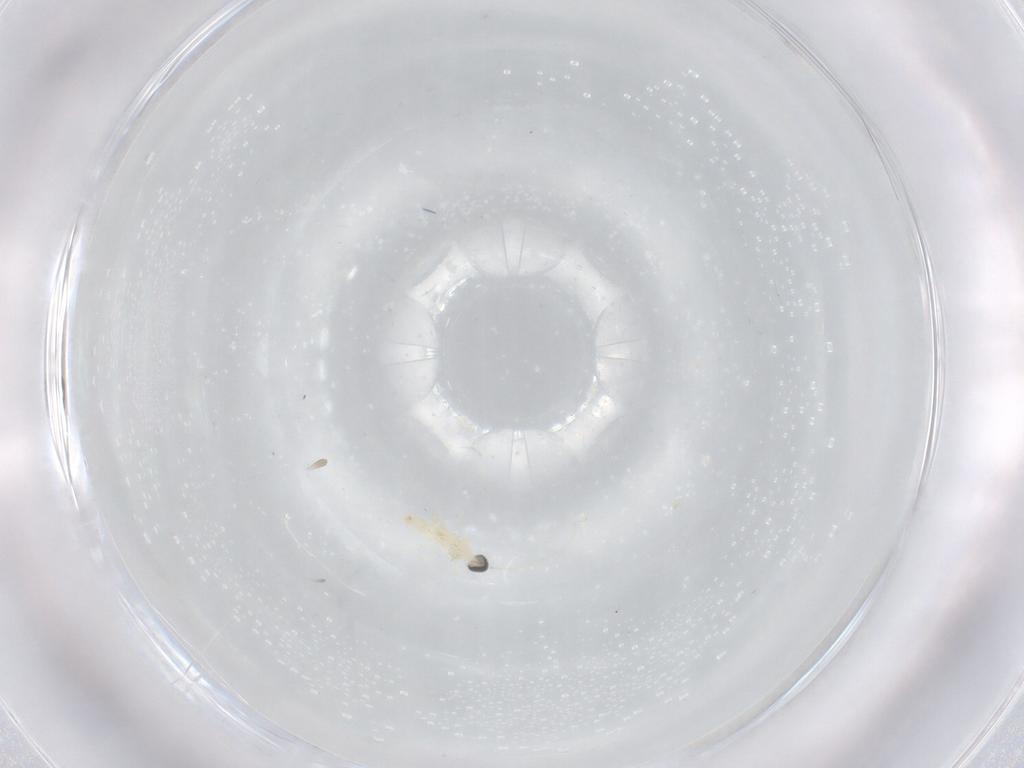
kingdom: Animalia
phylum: Arthropoda
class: Insecta
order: Diptera
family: Cecidomyiidae
